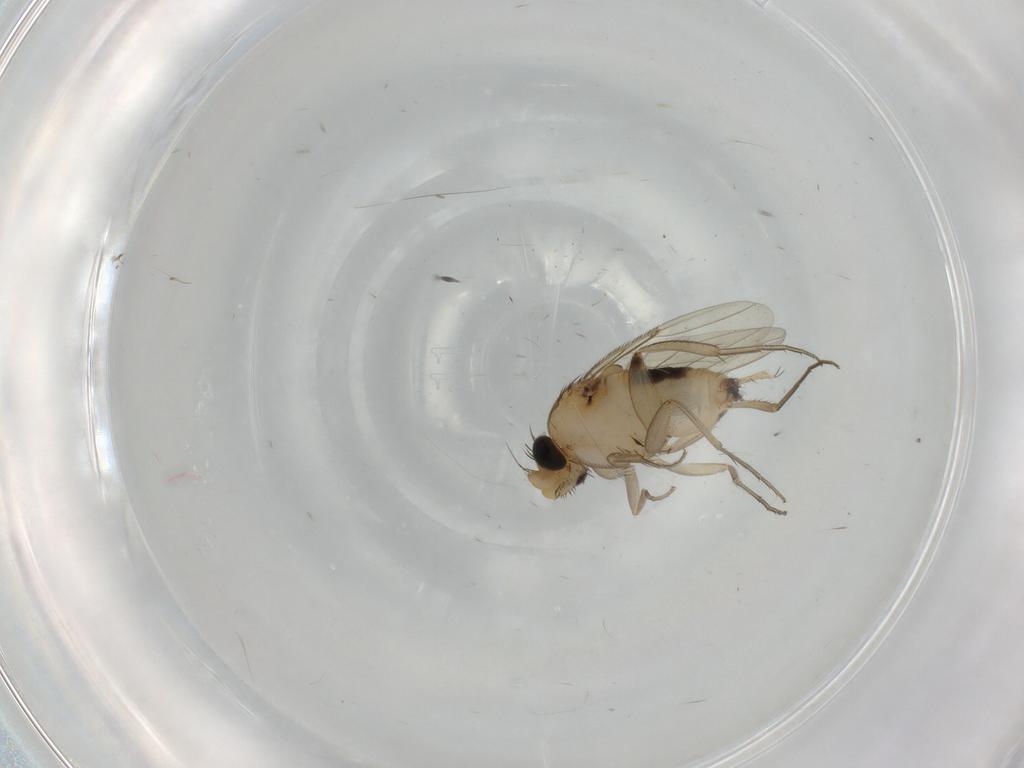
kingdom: Animalia
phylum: Arthropoda
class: Insecta
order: Diptera
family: Phoridae
